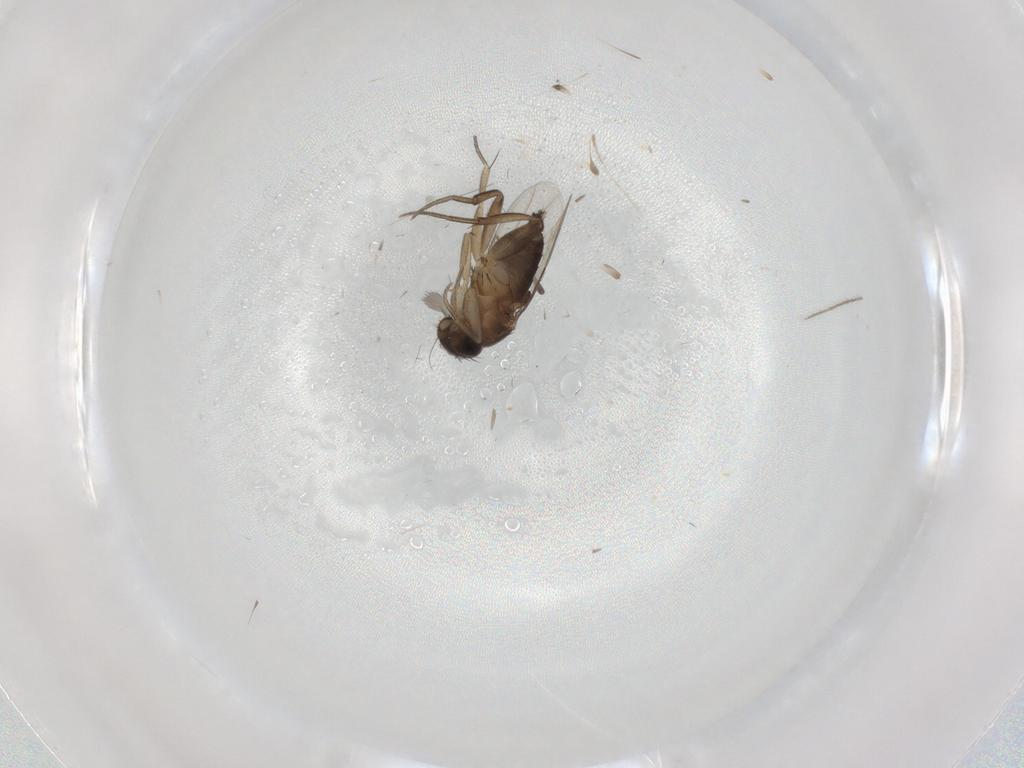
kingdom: Animalia
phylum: Arthropoda
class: Insecta
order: Diptera
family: Phoridae
